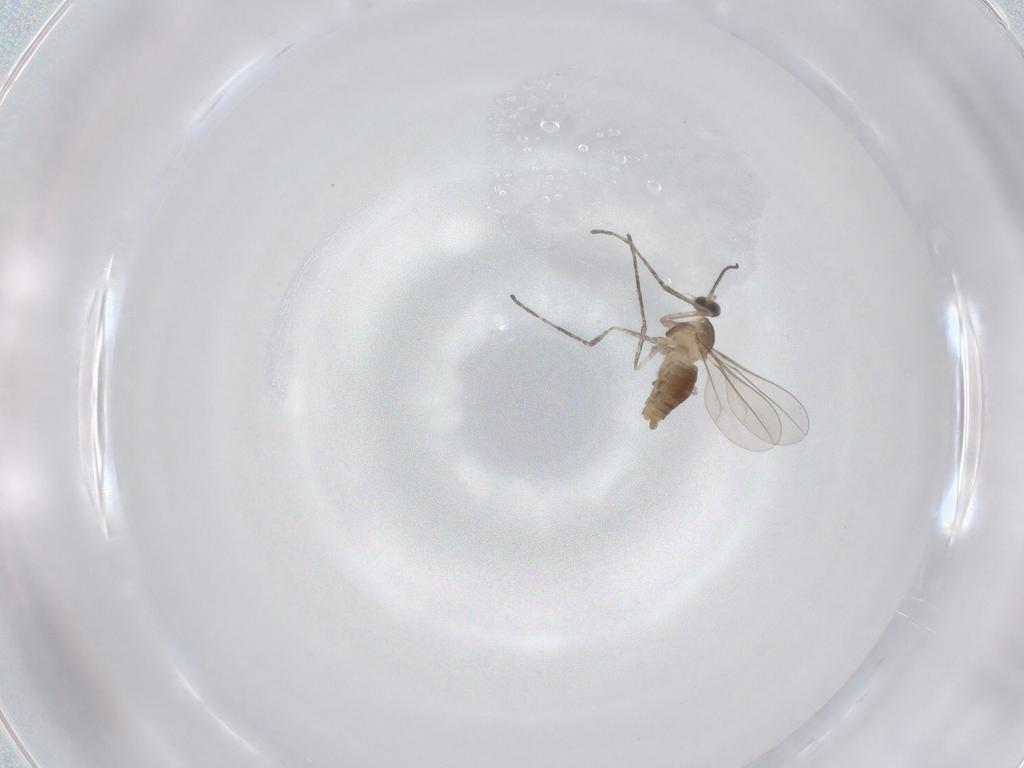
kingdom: Animalia
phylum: Arthropoda
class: Insecta
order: Diptera
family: Cecidomyiidae
